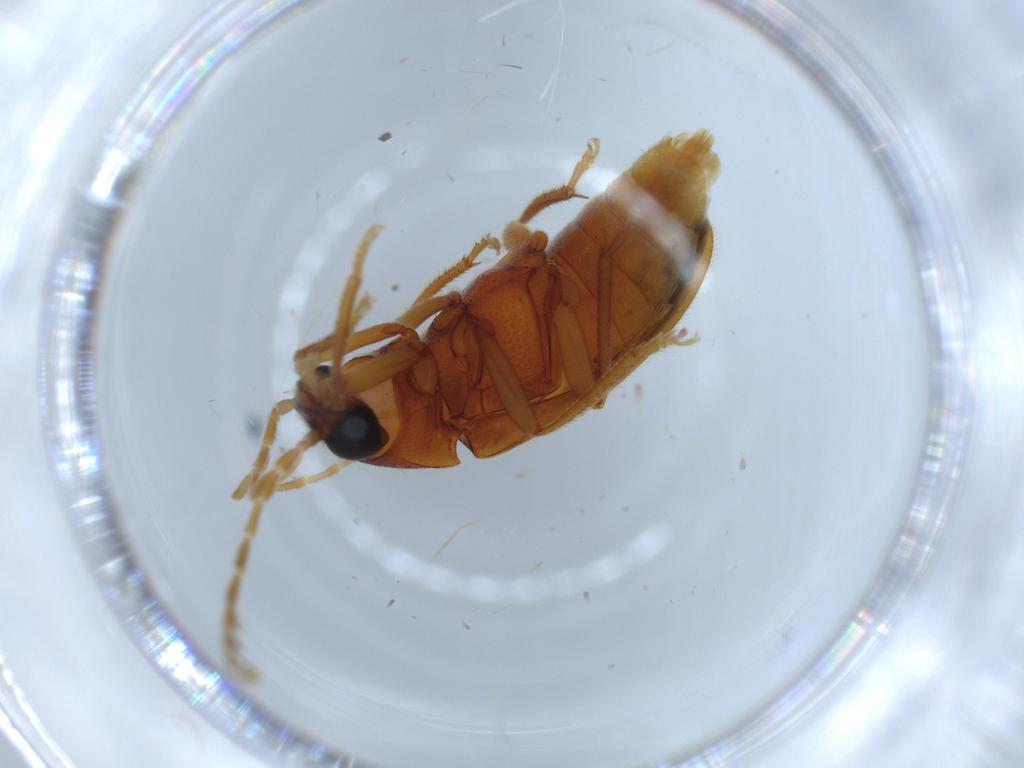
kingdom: Animalia
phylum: Arthropoda
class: Insecta
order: Coleoptera
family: Ptilodactylidae
